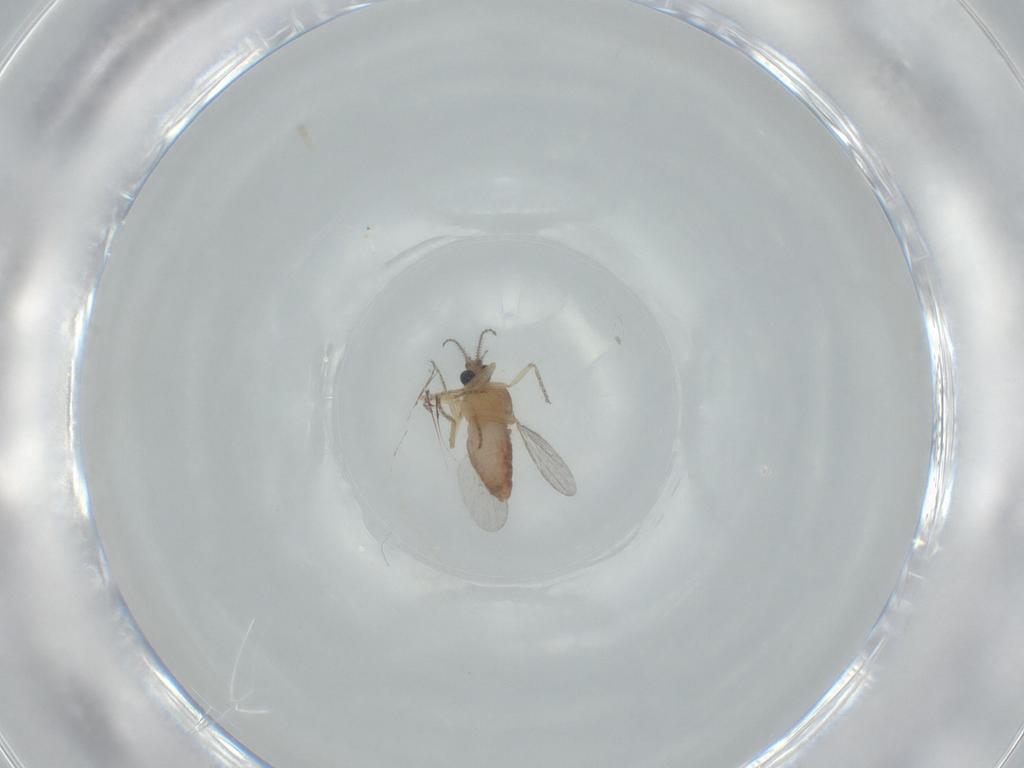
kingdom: Animalia
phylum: Arthropoda
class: Insecta
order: Diptera
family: Ceratopogonidae
